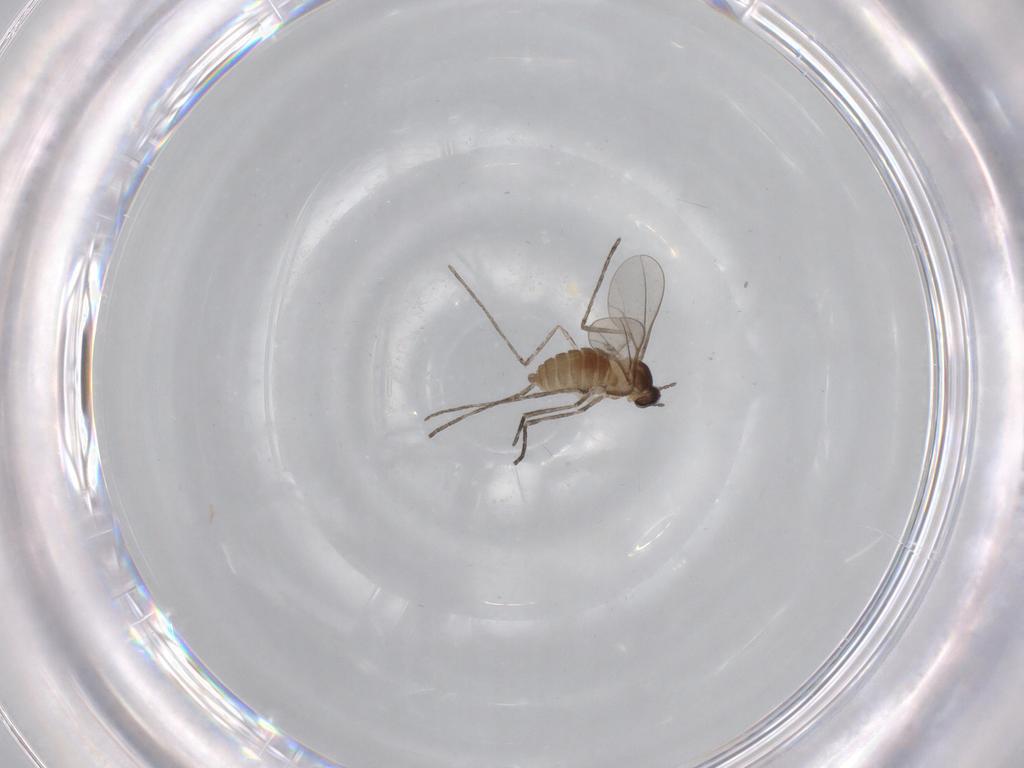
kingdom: Animalia
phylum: Arthropoda
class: Insecta
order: Diptera
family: Cecidomyiidae
